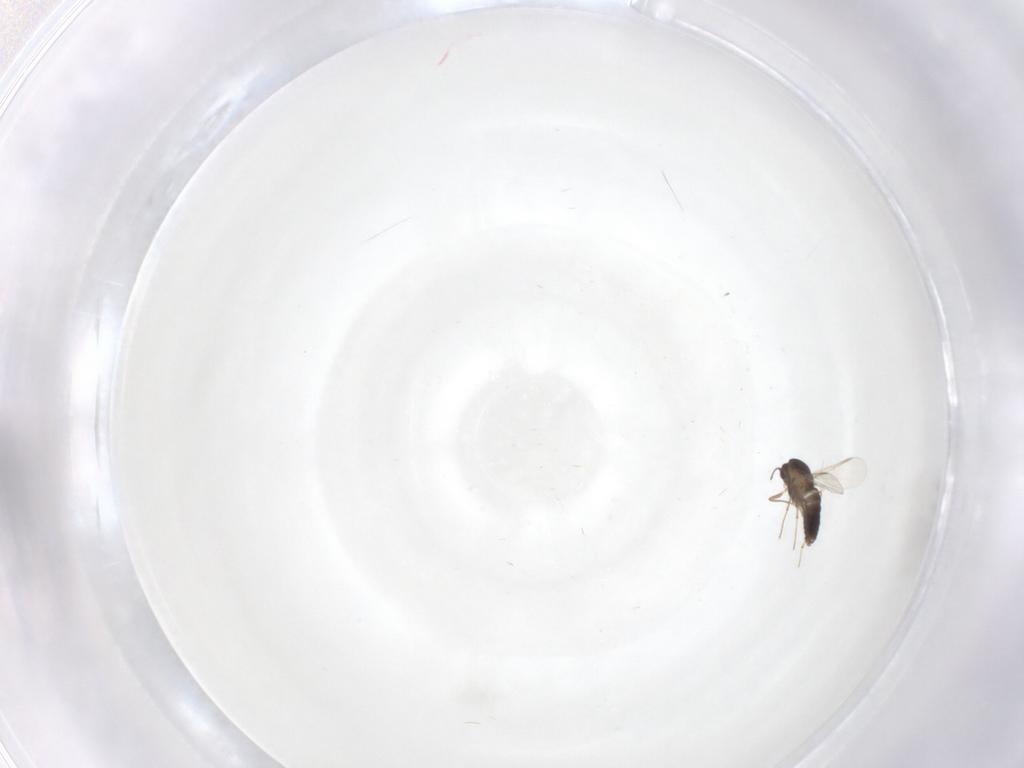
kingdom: Animalia
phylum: Arthropoda
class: Insecta
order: Diptera
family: Chironomidae
